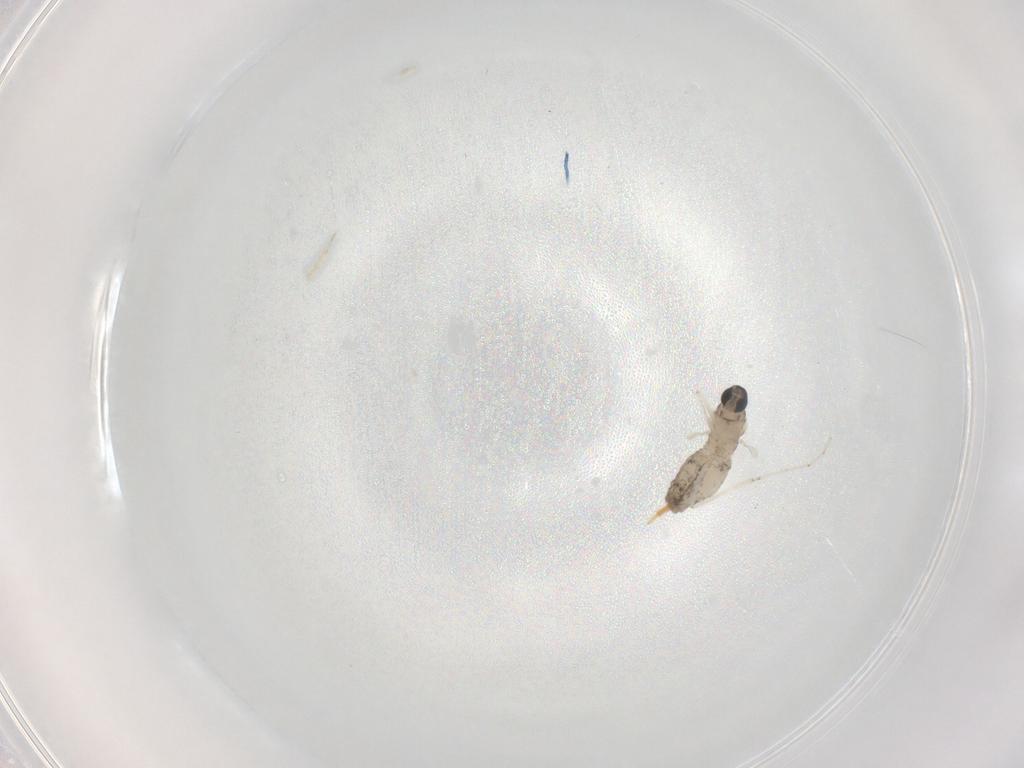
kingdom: Animalia
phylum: Arthropoda
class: Insecta
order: Diptera
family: Cecidomyiidae
